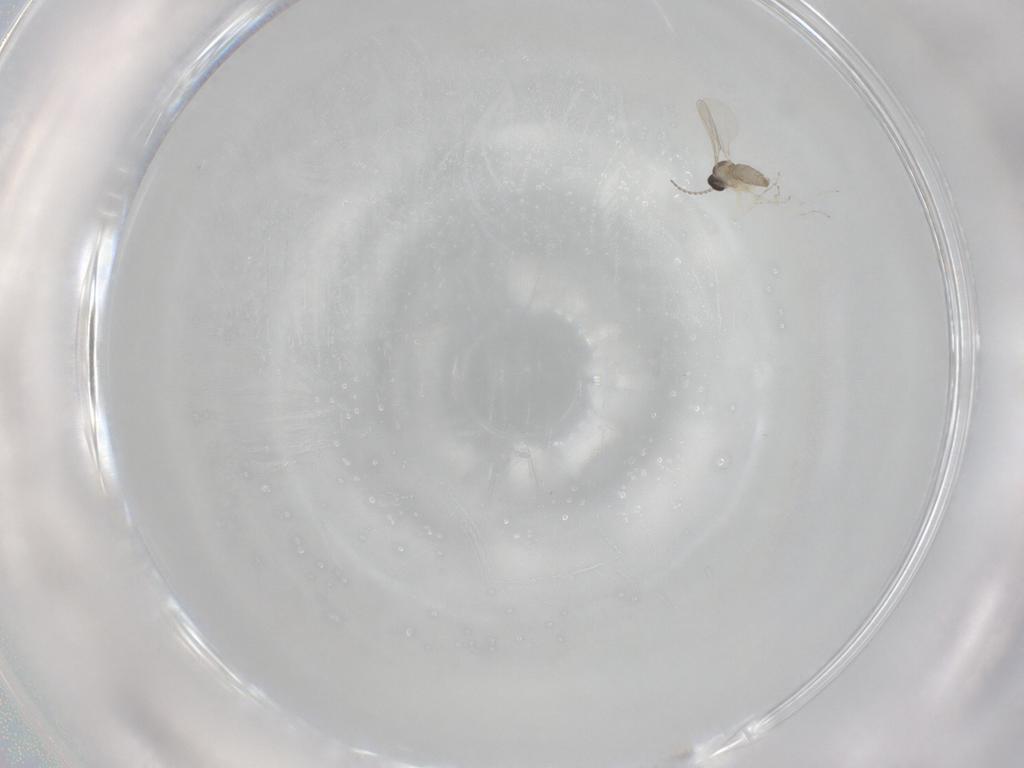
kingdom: Animalia
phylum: Arthropoda
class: Insecta
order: Diptera
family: Cecidomyiidae
